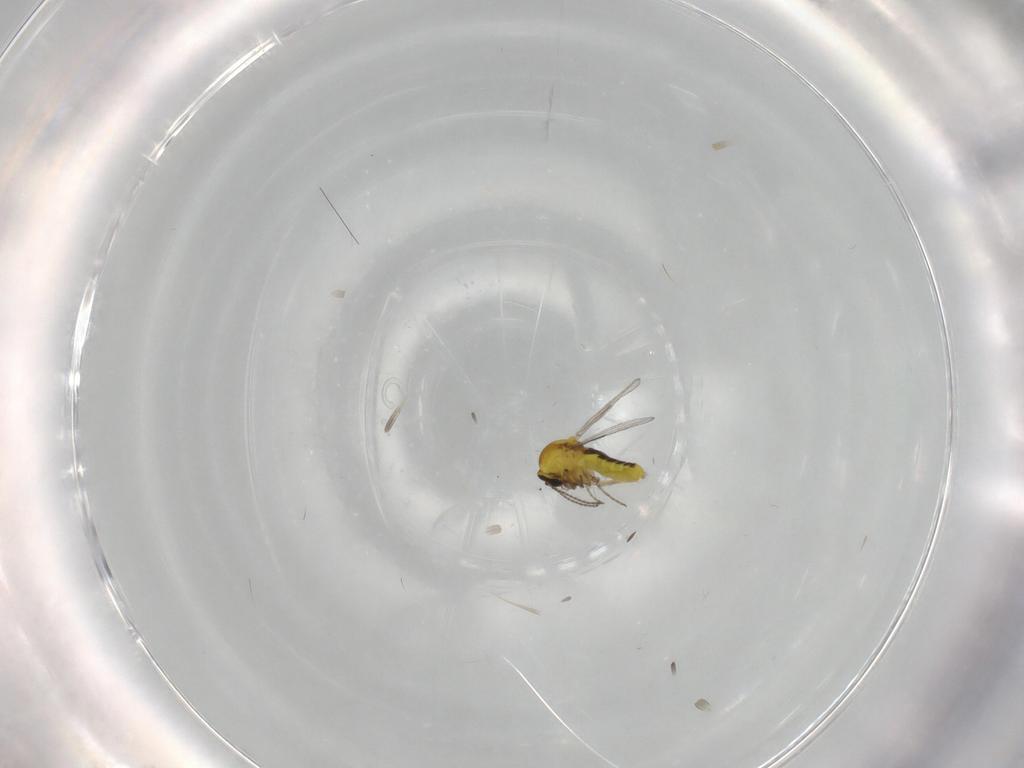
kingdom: Animalia
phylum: Arthropoda
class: Insecta
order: Diptera
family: Ceratopogonidae
